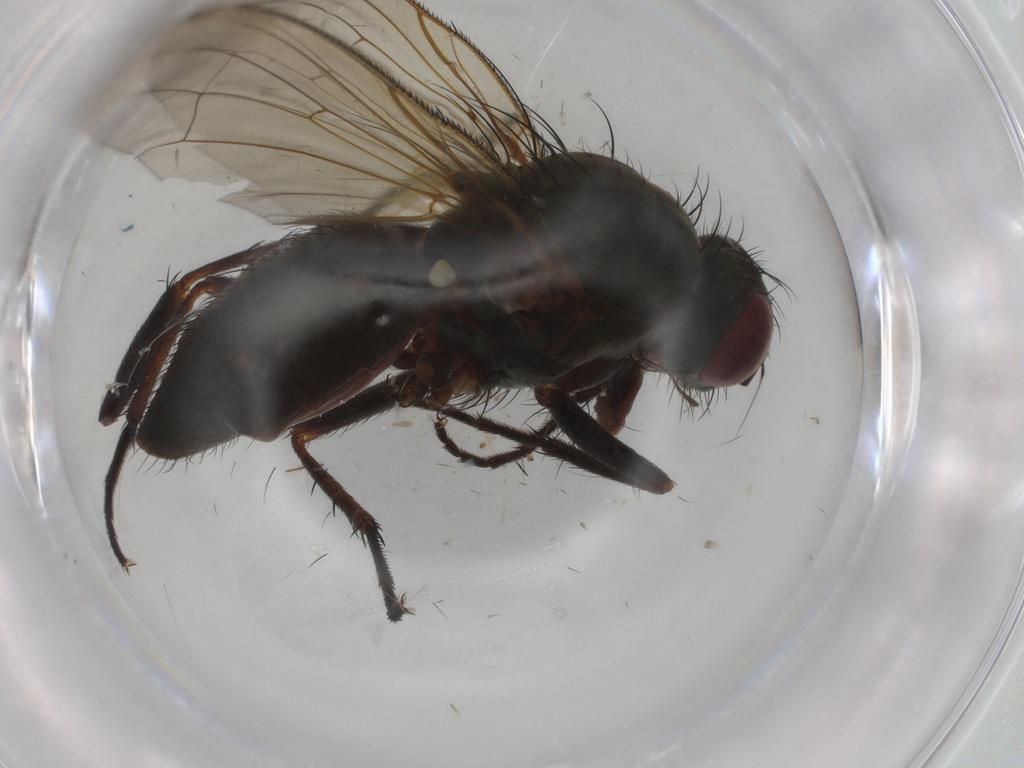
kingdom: Animalia
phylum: Arthropoda
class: Insecta
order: Diptera
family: Anthomyiidae
